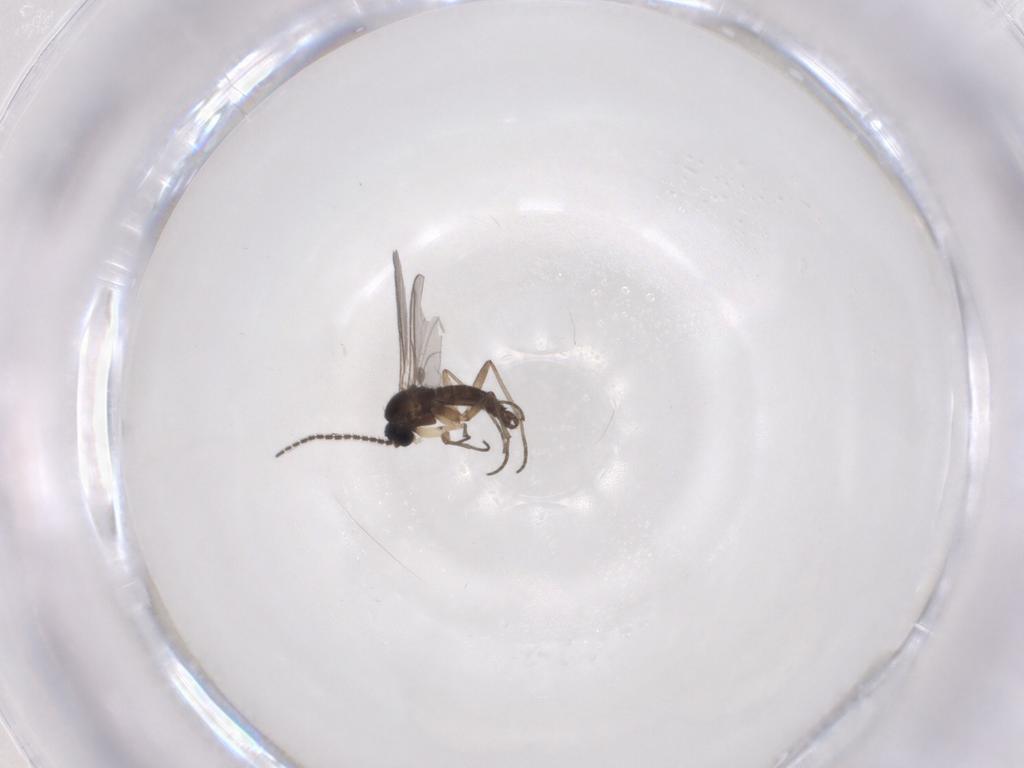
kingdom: Animalia
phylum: Arthropoda
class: Insecta
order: Diptera
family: Sciaridae
